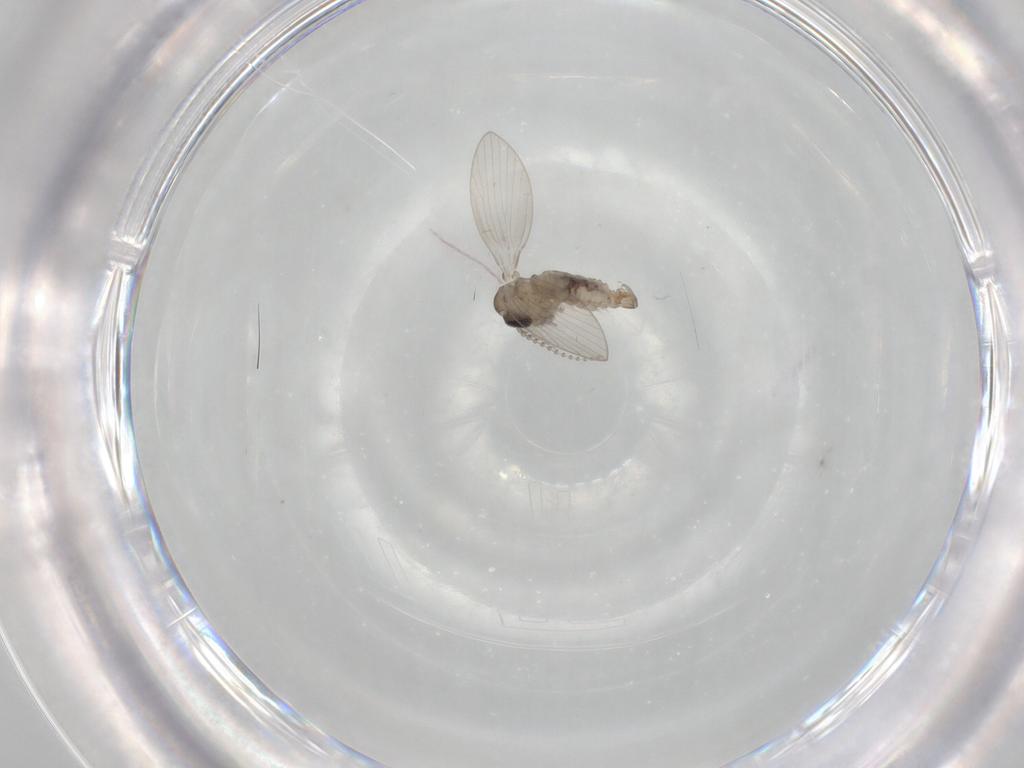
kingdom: Animalia
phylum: Arthropoda
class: Insecta
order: Diptera
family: Psychodidae
